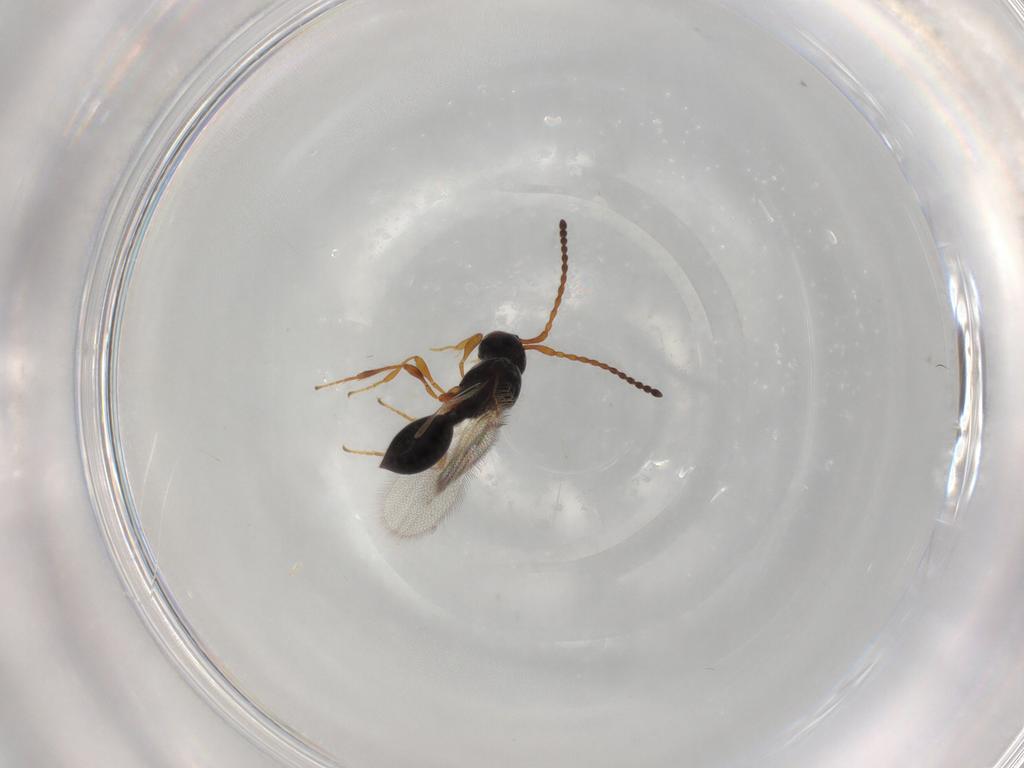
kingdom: Animalia
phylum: Arthropoda
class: Insecta
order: Hymenoptera
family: Diapriidae
